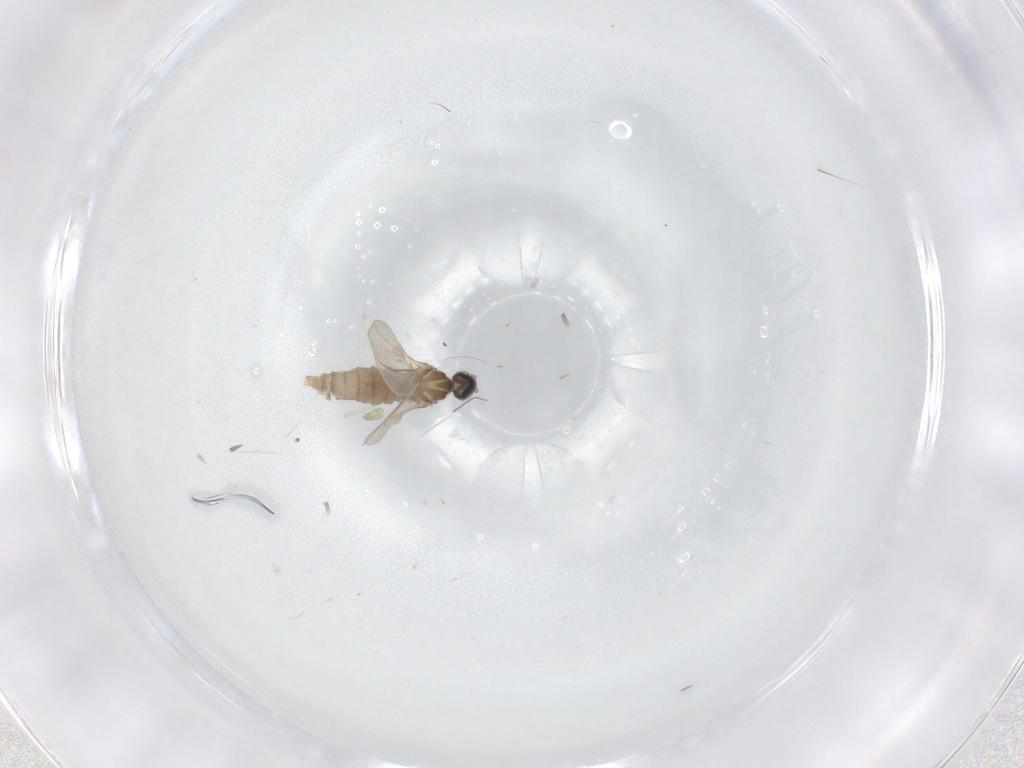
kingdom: Animalia
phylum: Arthropoda
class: Insecta
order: Diptera
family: Cecidomyiidae
